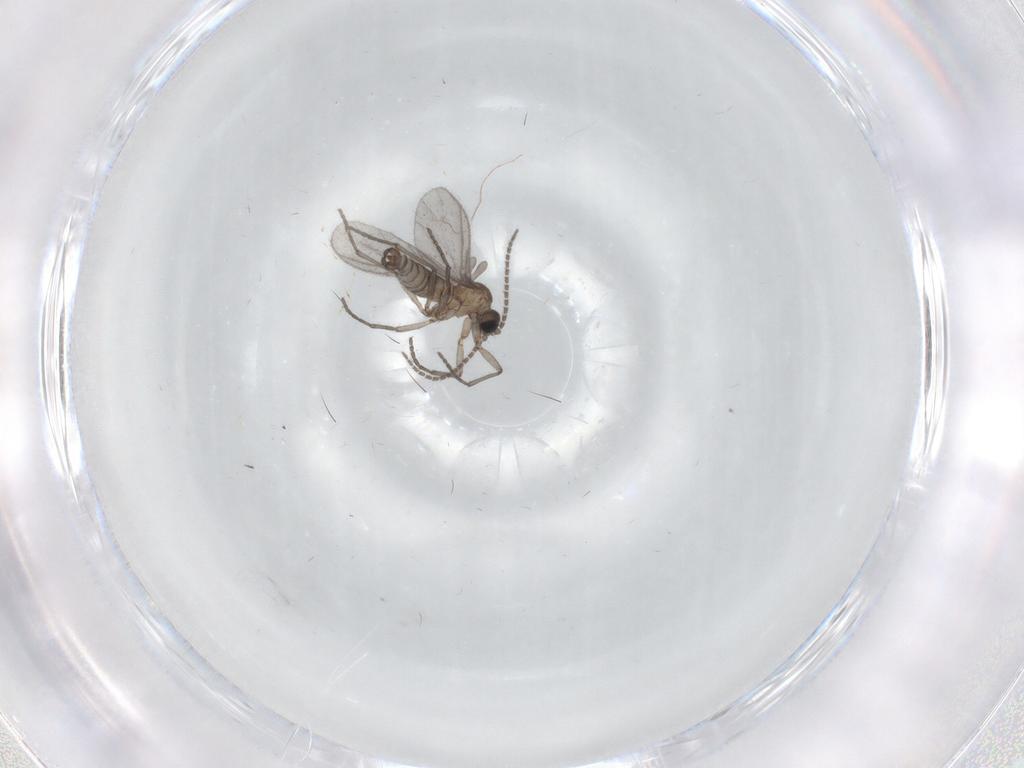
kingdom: Animalia
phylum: Arthropoda
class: Insecta
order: Diptera
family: Sciaridae
